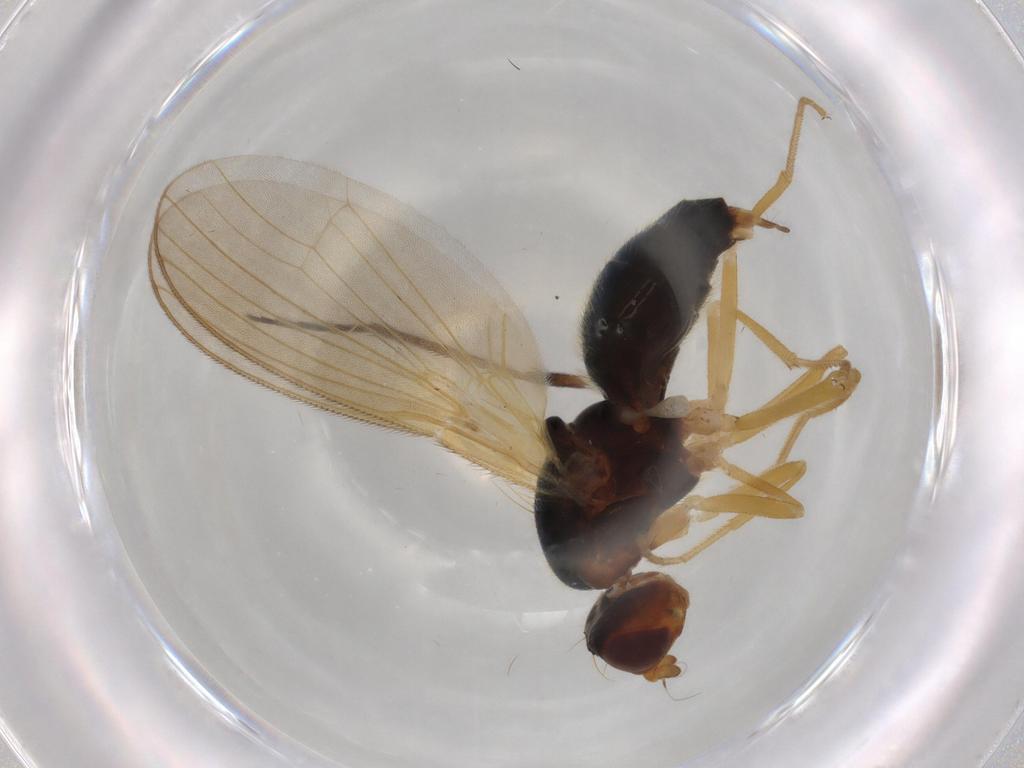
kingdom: Animalia
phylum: Arthropoda
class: Insecta
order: Diptera
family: Dolichopodidae
